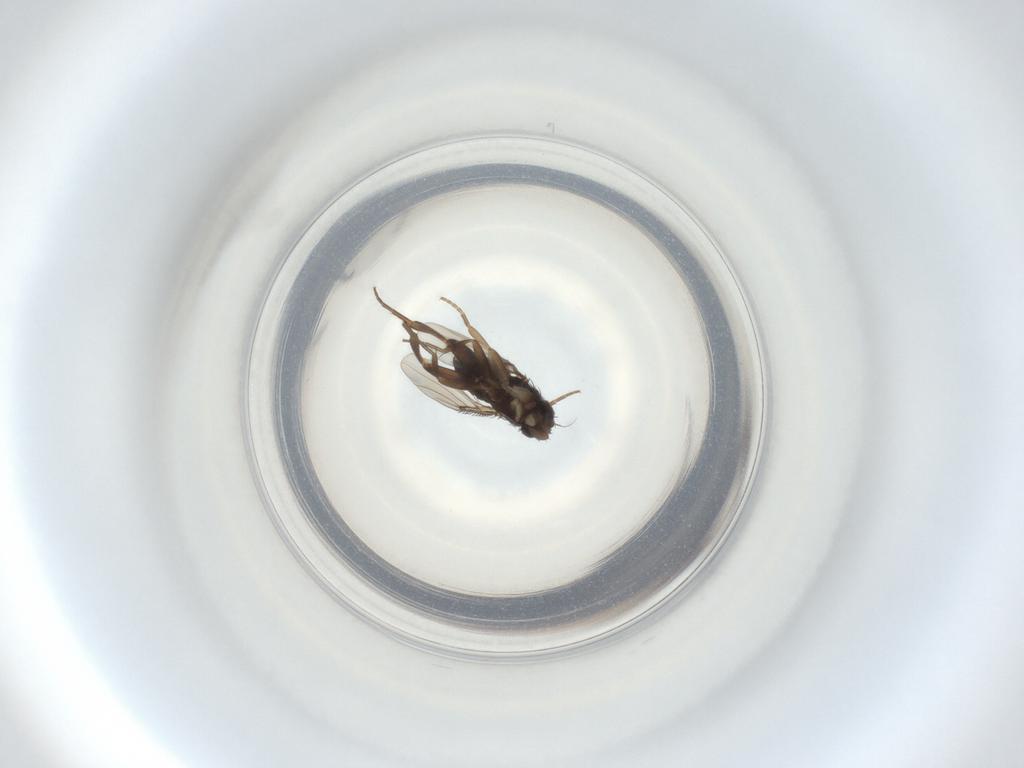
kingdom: Animalia
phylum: Arthropoda
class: Insecta
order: Diptera
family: Phoridae
